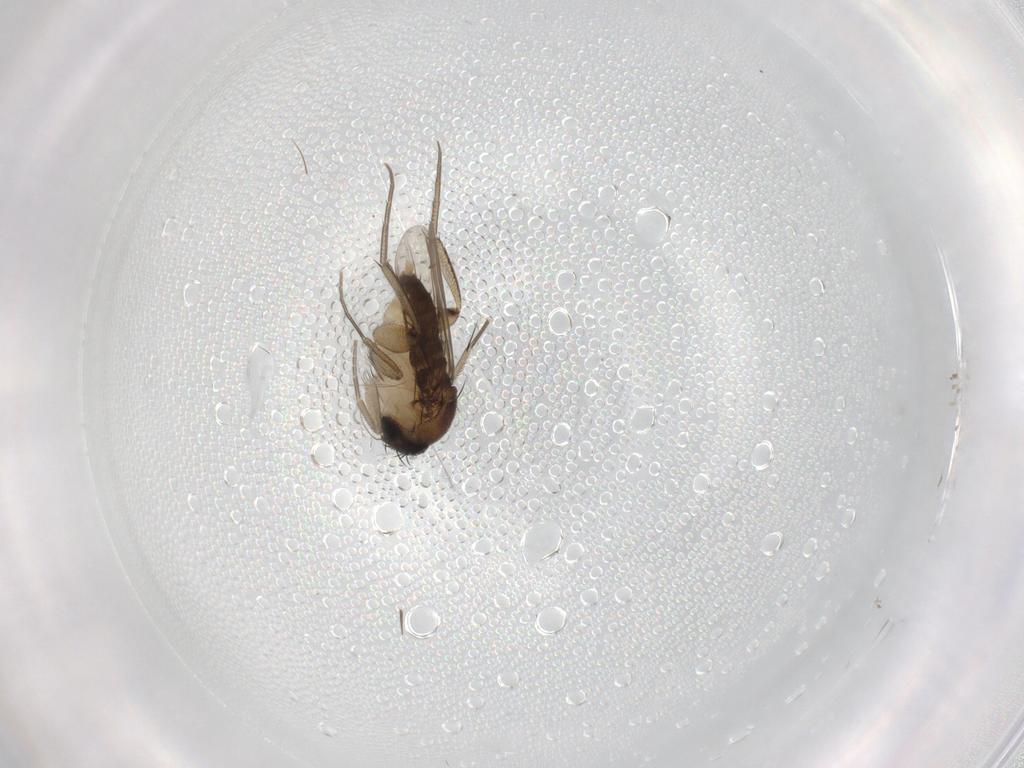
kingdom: Animalia
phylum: Arthropoda
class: Insecta
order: Diptera
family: Phoridae
